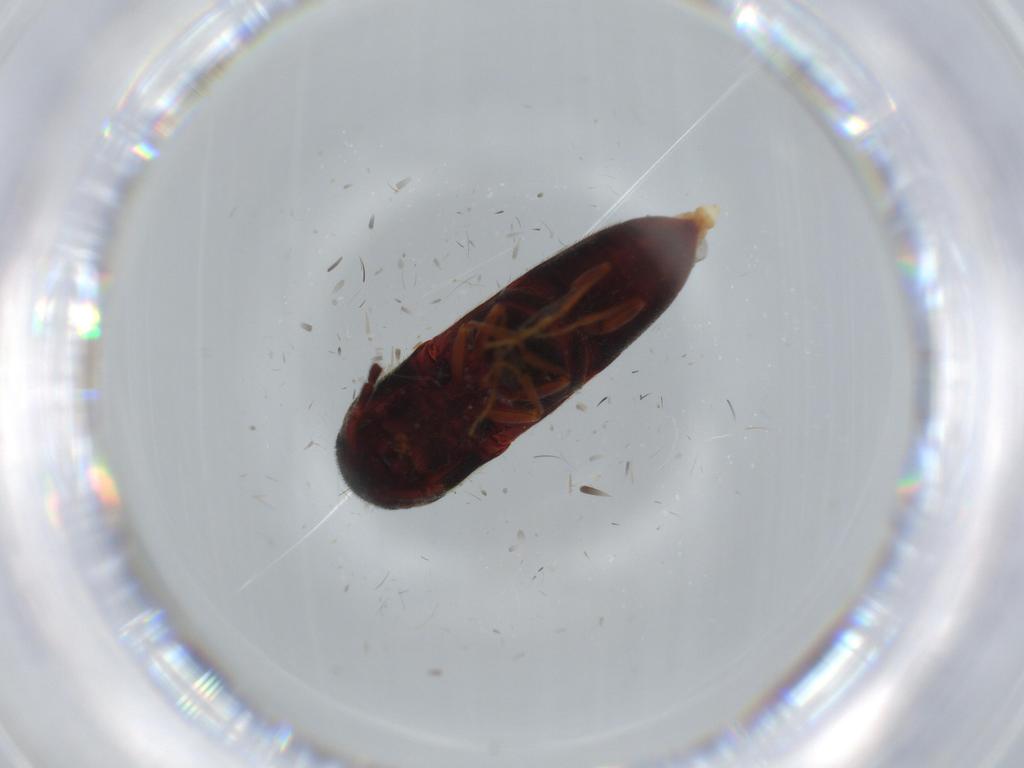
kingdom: Animalia
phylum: Arthropoda
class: Insecta
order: Coleoptera
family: Eucnemidae
